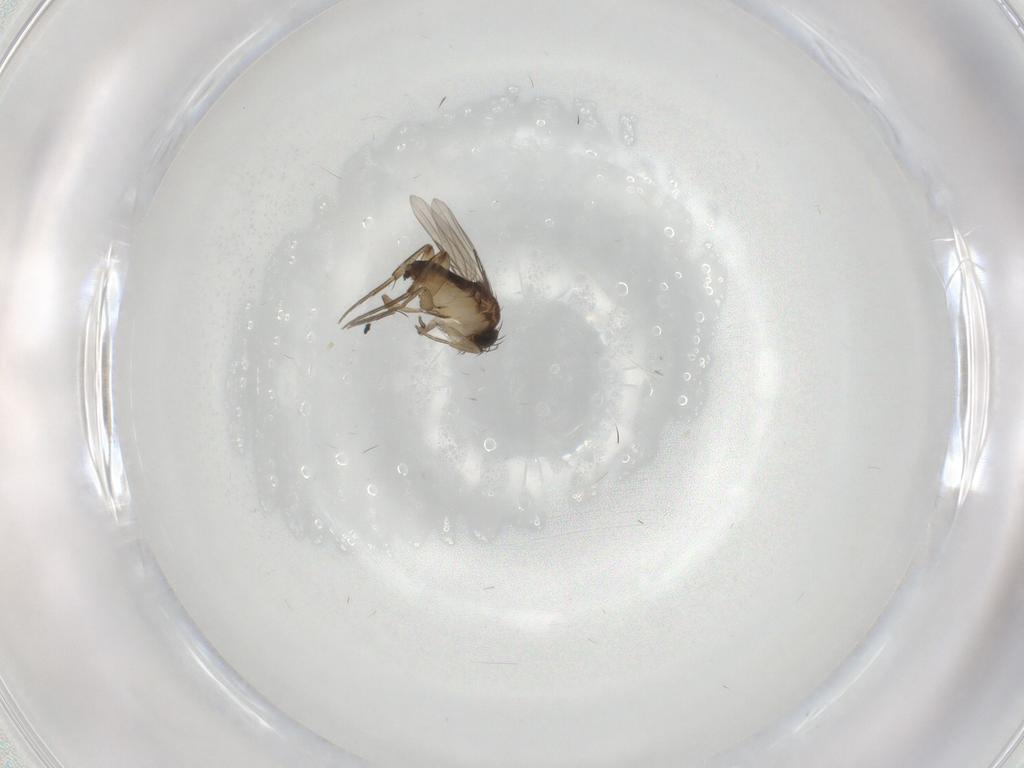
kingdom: Animalia
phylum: Arthropoda
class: Insecta
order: Diptera
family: Phoridae
